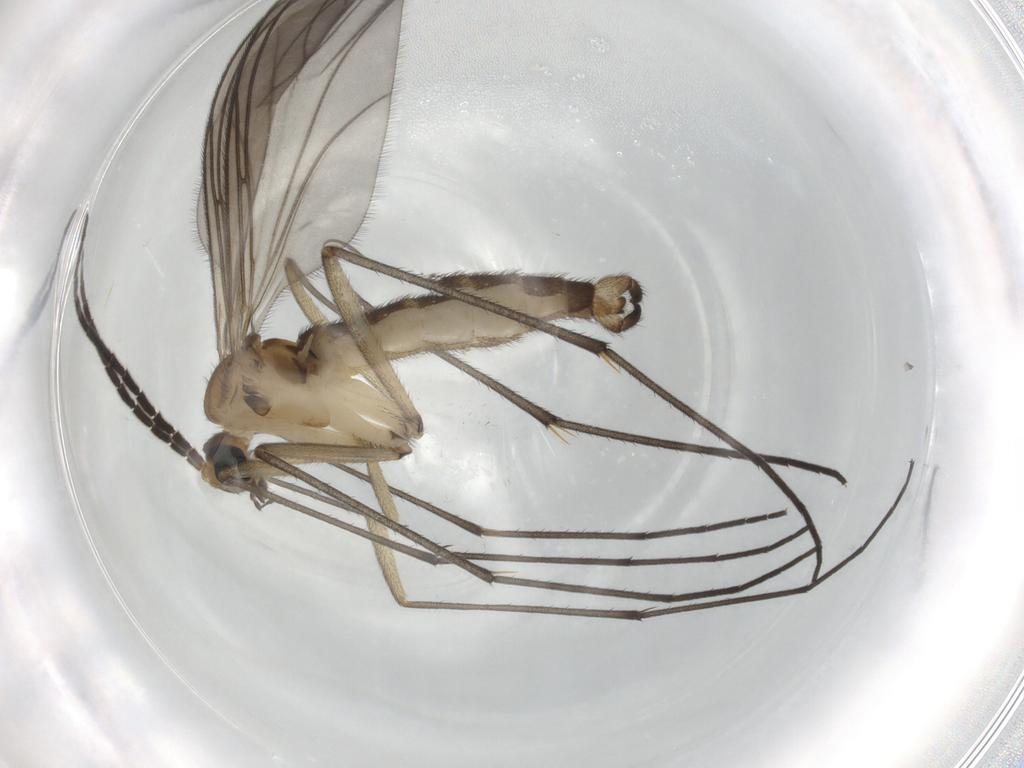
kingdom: Animalia
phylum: Arthropoda
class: Insecta
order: Diptera
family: Sciaridae
